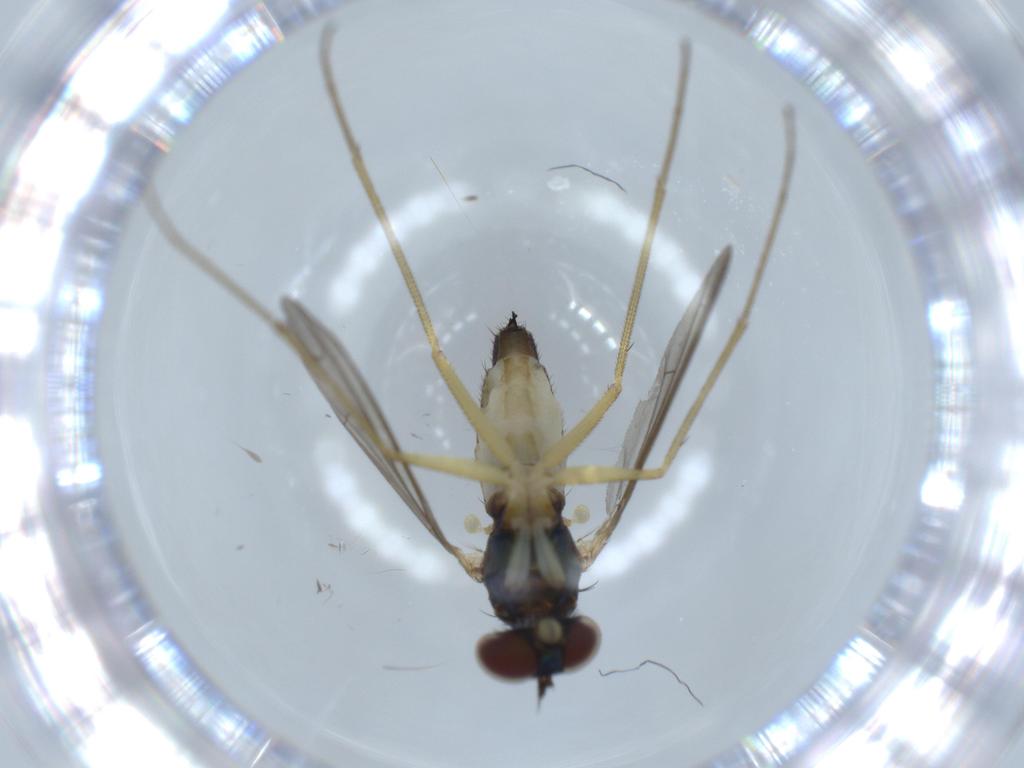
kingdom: Animalia
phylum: Arthropoda
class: Insecta
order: Diptera
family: Dolichopodidae
